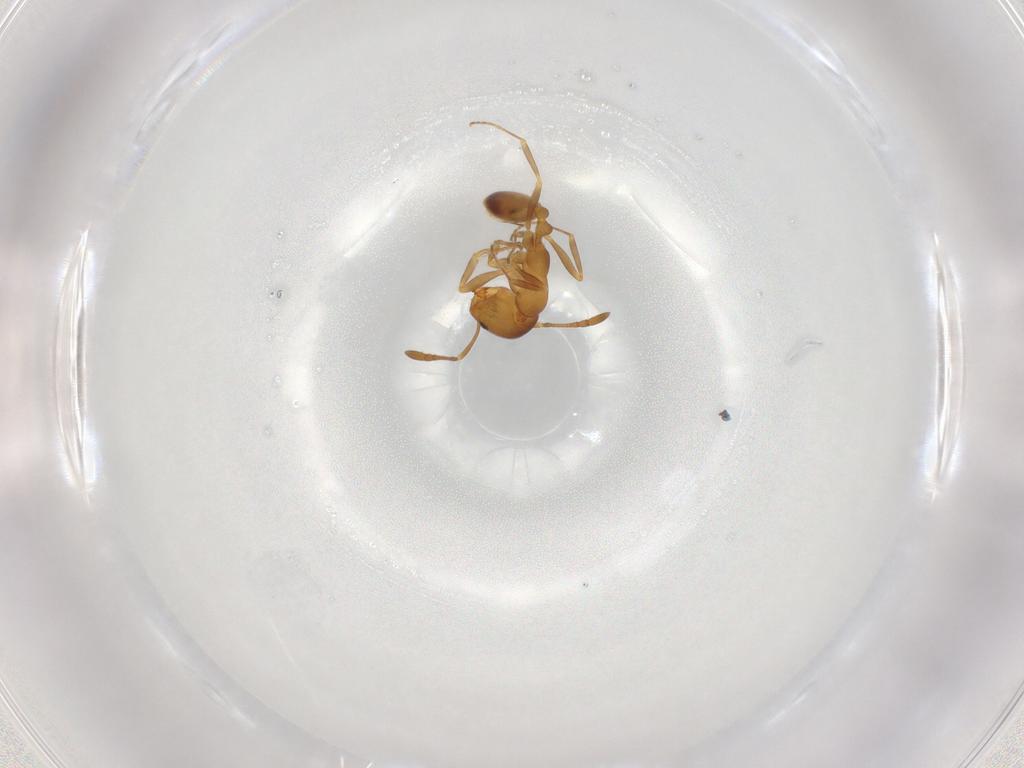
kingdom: Animalia
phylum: Arthropoda
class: Insecta
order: Hymenoptera
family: Formicidae
